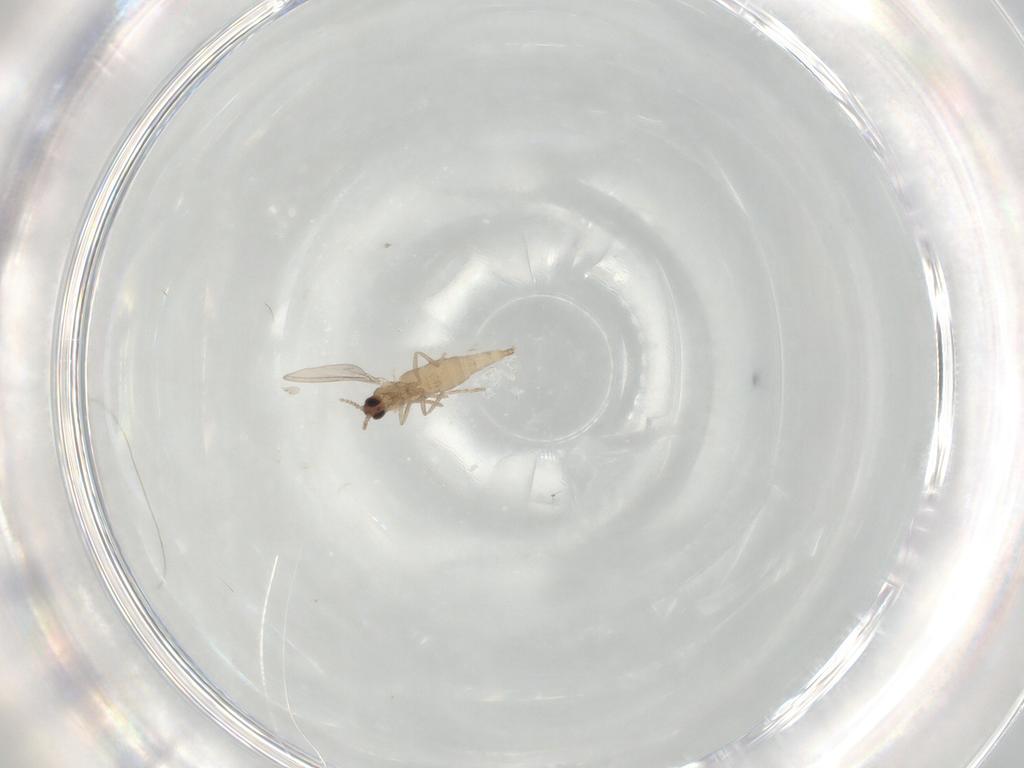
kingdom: Animalia
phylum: Arthropoda
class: Insecta
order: Diptera
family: Cecidomyiidae
